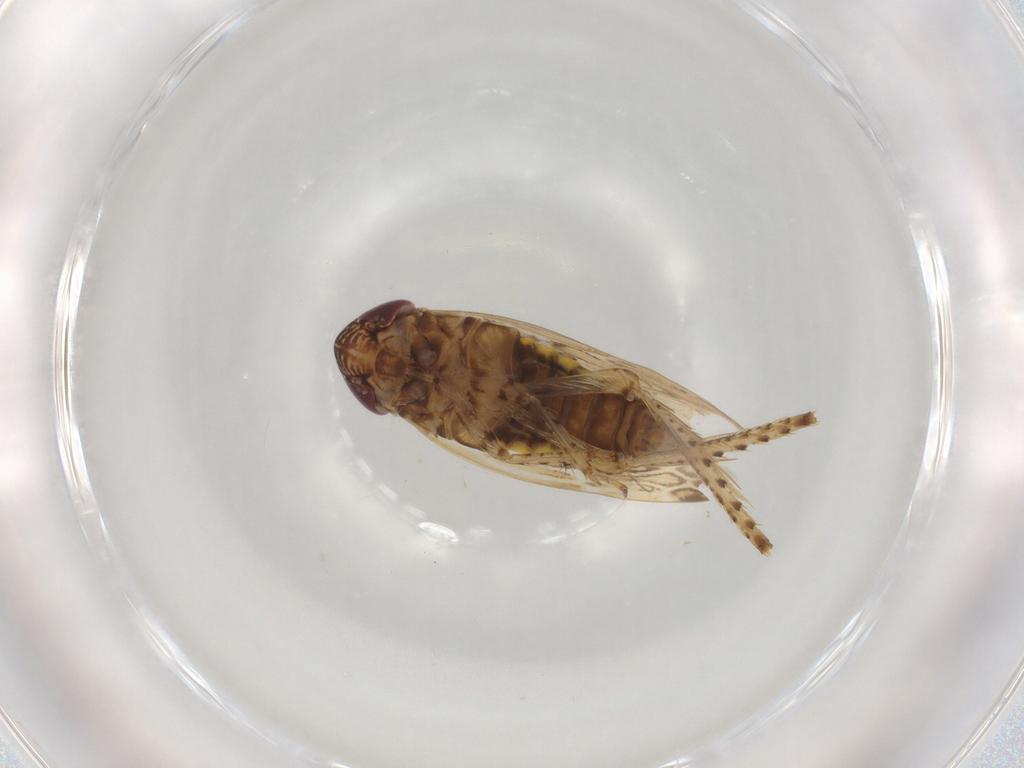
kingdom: Animalia
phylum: Arthropoda
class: Insecta
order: Hemiptera
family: Cicadellidae
